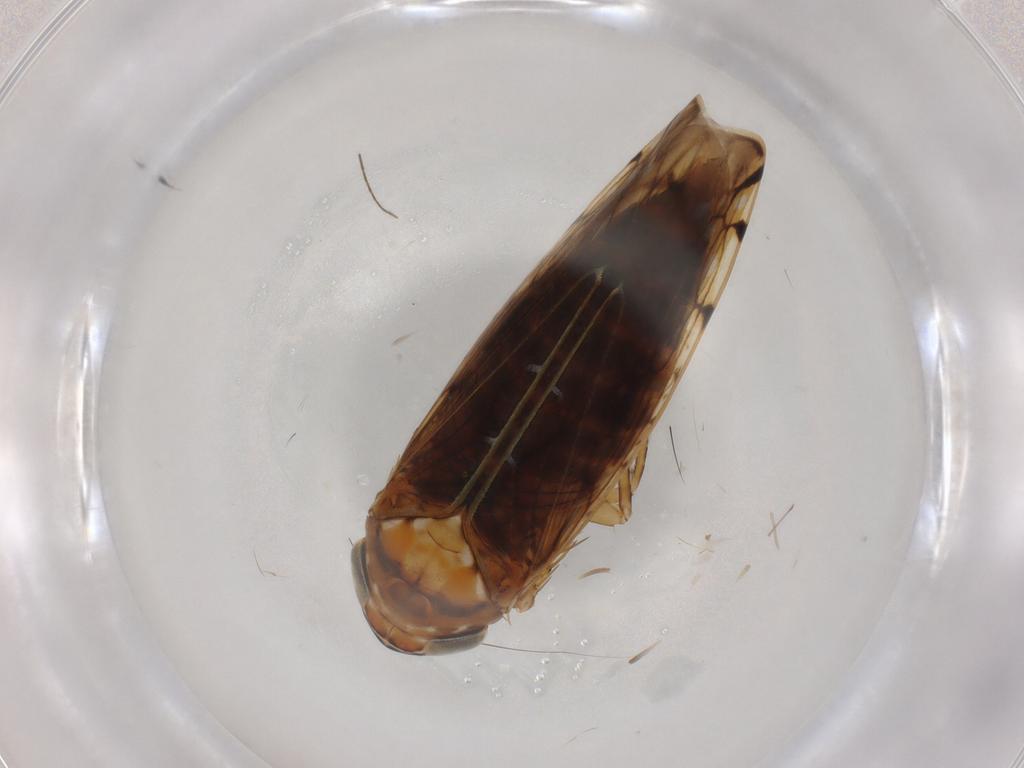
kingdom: Animalia
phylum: Arthropoda
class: Insecta
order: Hemiptera
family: Cicadellidae
